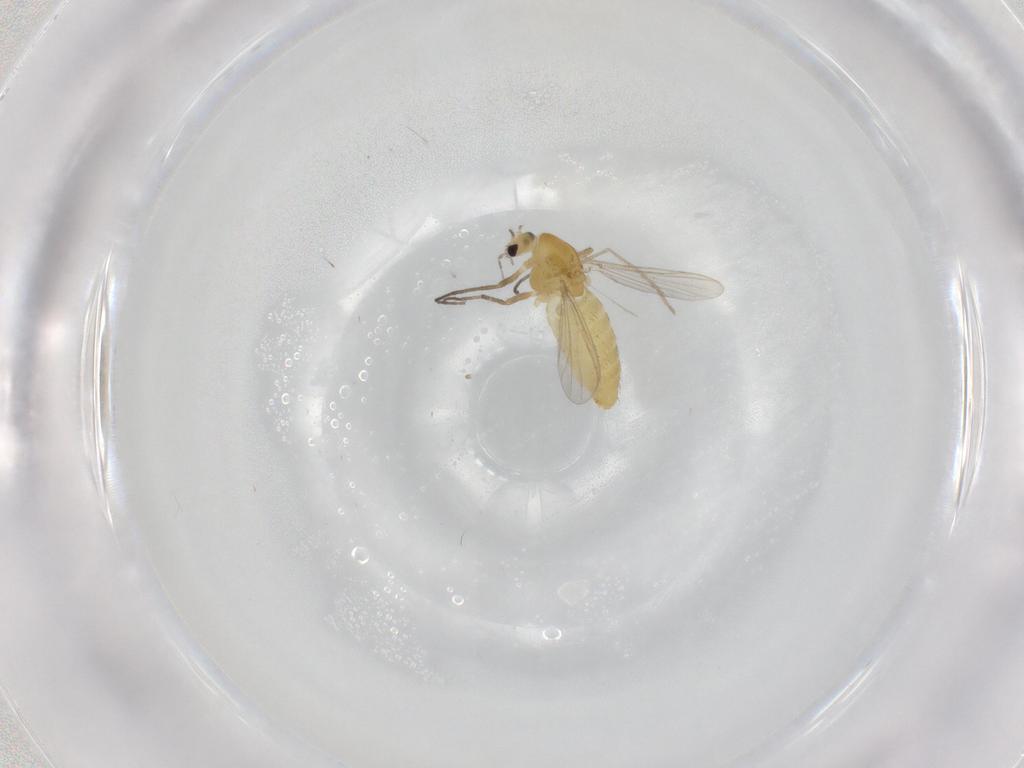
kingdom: Animalia
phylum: Arthropoda
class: Insecta
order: Diptera
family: Chironomidae
